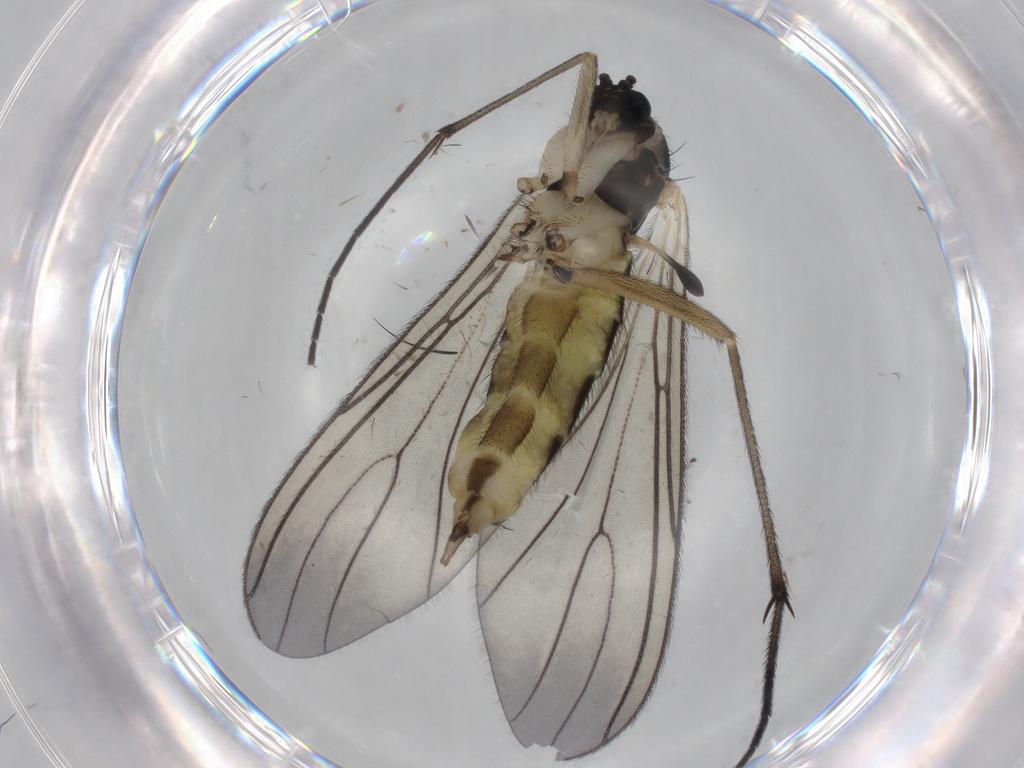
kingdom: Animalia
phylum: Arthropoda
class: Insecta
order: Diptera
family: Sciaridae
